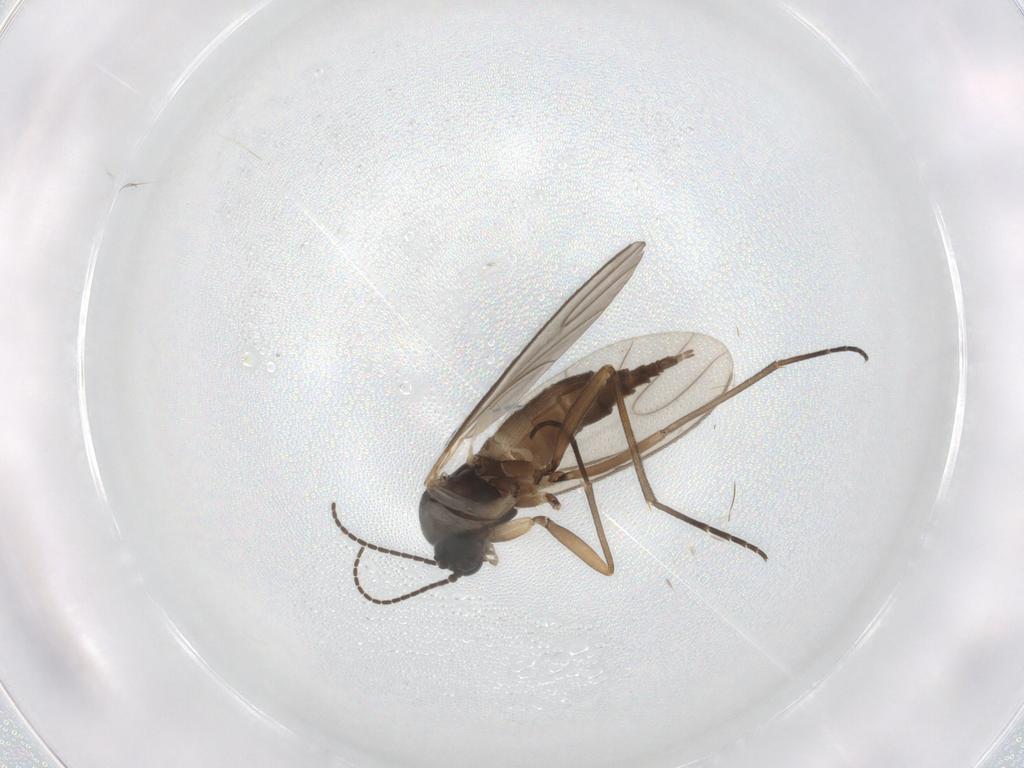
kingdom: Animalia
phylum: Arthropoda
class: Insecta
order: Diptera
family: Sciaridae
